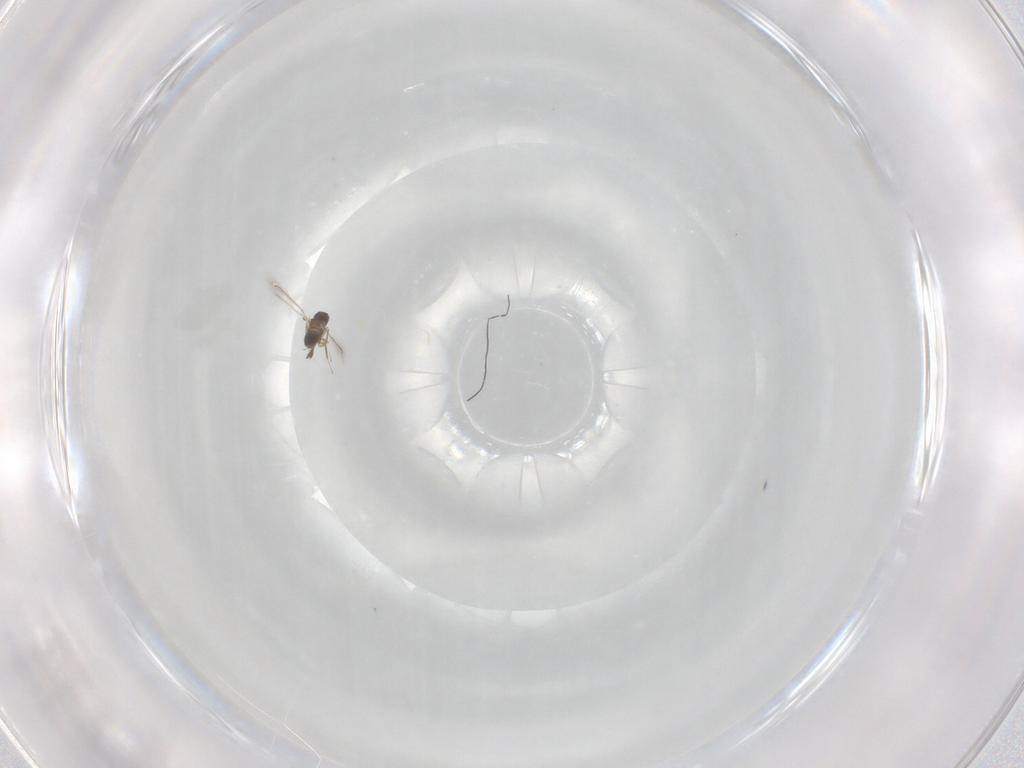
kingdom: Animalia
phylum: Arthropoda
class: Insecta
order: Hymenoptera
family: Mymaridae
